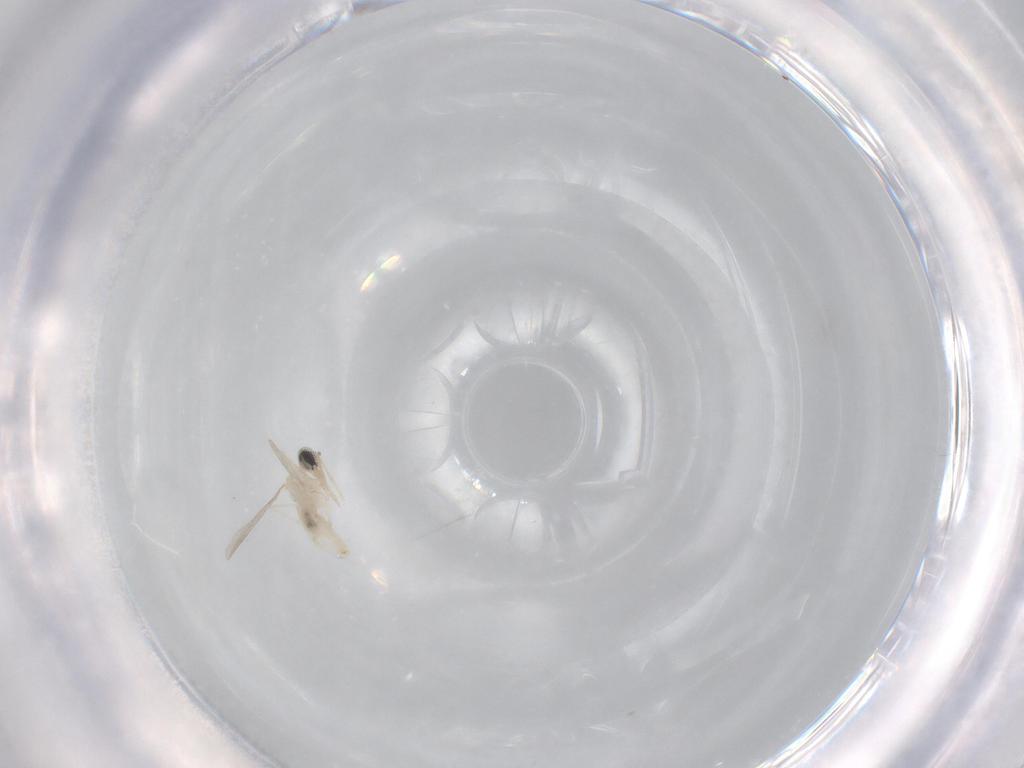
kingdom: Animalia
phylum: Arthropoda
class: Insecta
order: Diptera
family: Chironomidae
